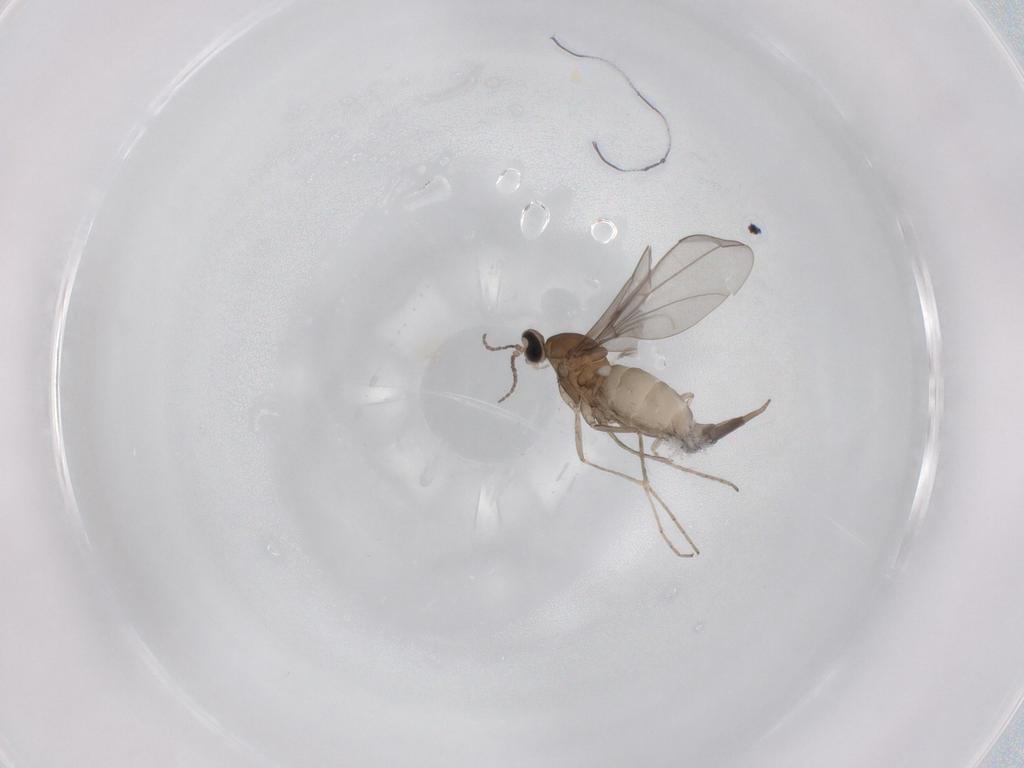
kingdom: Animalia
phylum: Arthropoda
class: Insecta
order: Diptera
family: Cecidomyiidae
